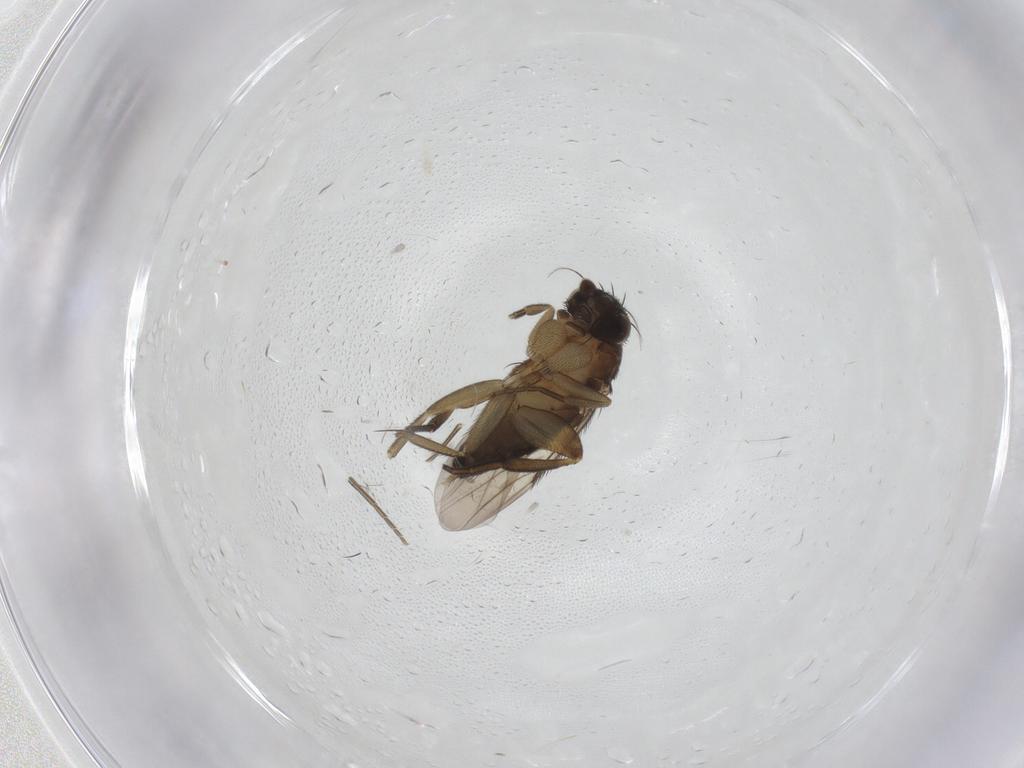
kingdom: Animalia
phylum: Arthropoda
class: Insecta
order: Diptera
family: Phoridae
